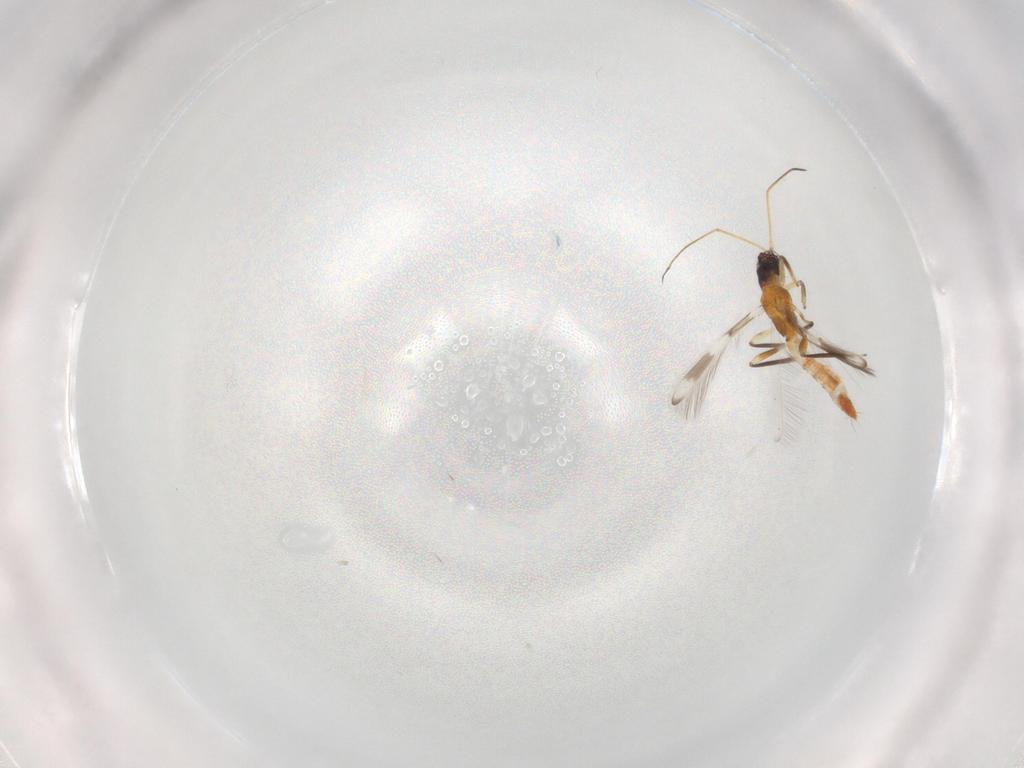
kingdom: Animalia
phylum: Arthropoda
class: Insecta
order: Thysanoptera
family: Aeolothripidae
